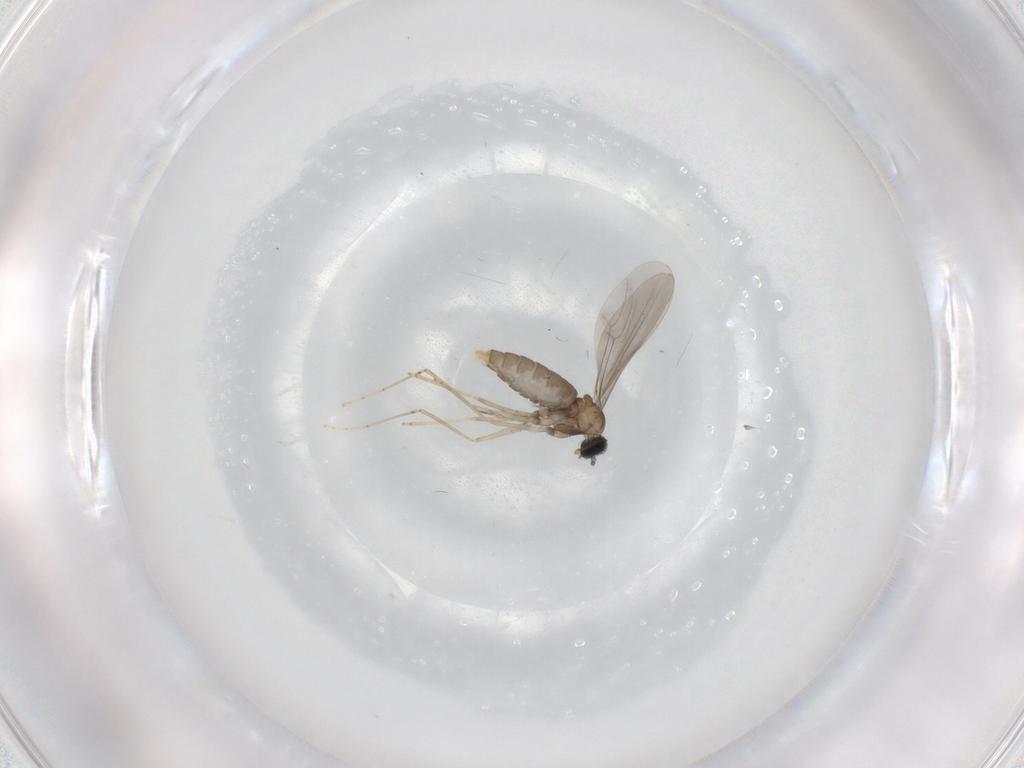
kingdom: Animalia
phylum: Arthropoda
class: Insecta
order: Diptera
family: Cecidomyiidae
